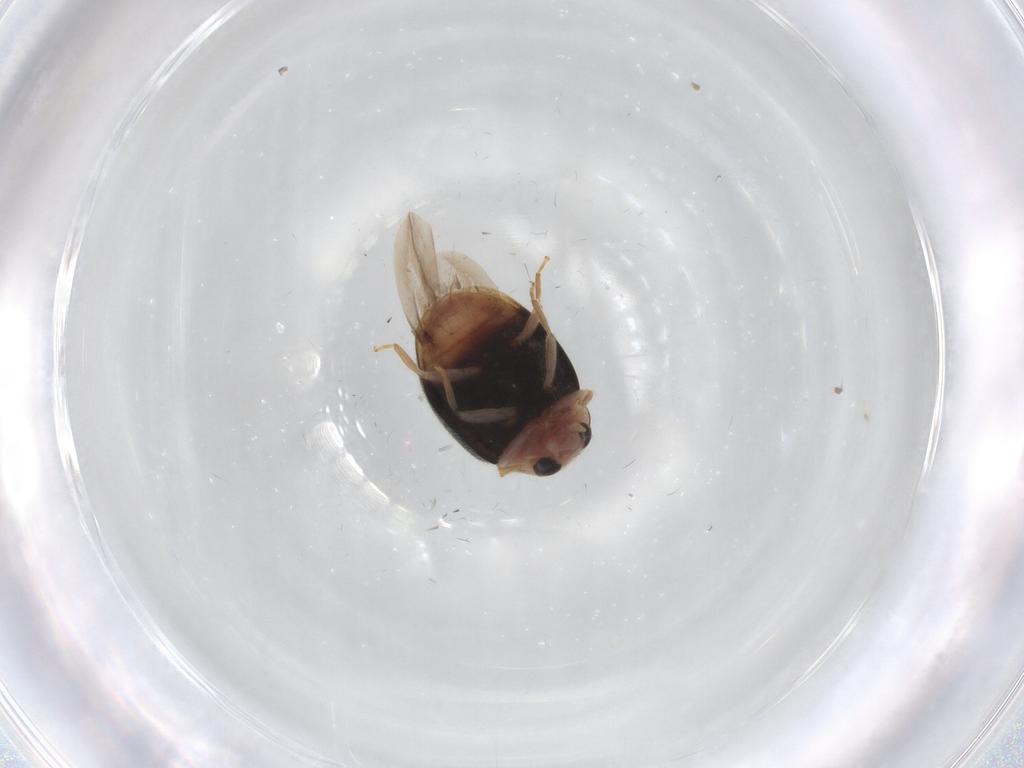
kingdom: Animalia
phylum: Arthropoda
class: Insecta
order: Coleoptera
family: Coccinellidae
